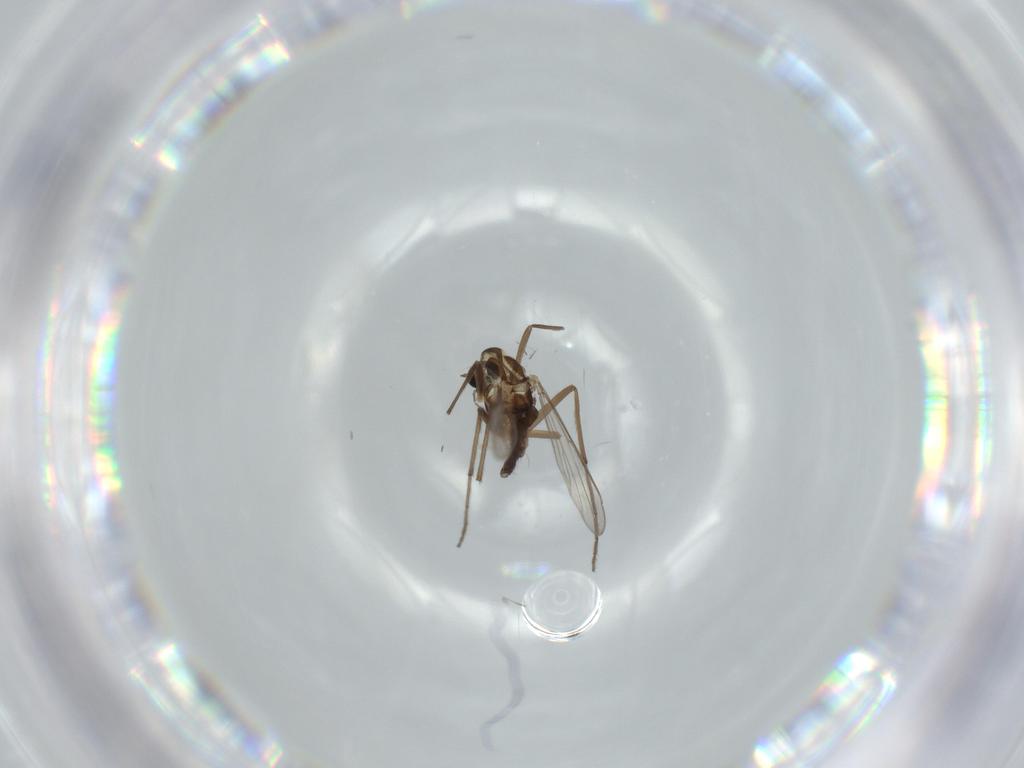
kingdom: Animalia
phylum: Arthropoda
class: Insecta
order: Diptera
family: Chironomidae
